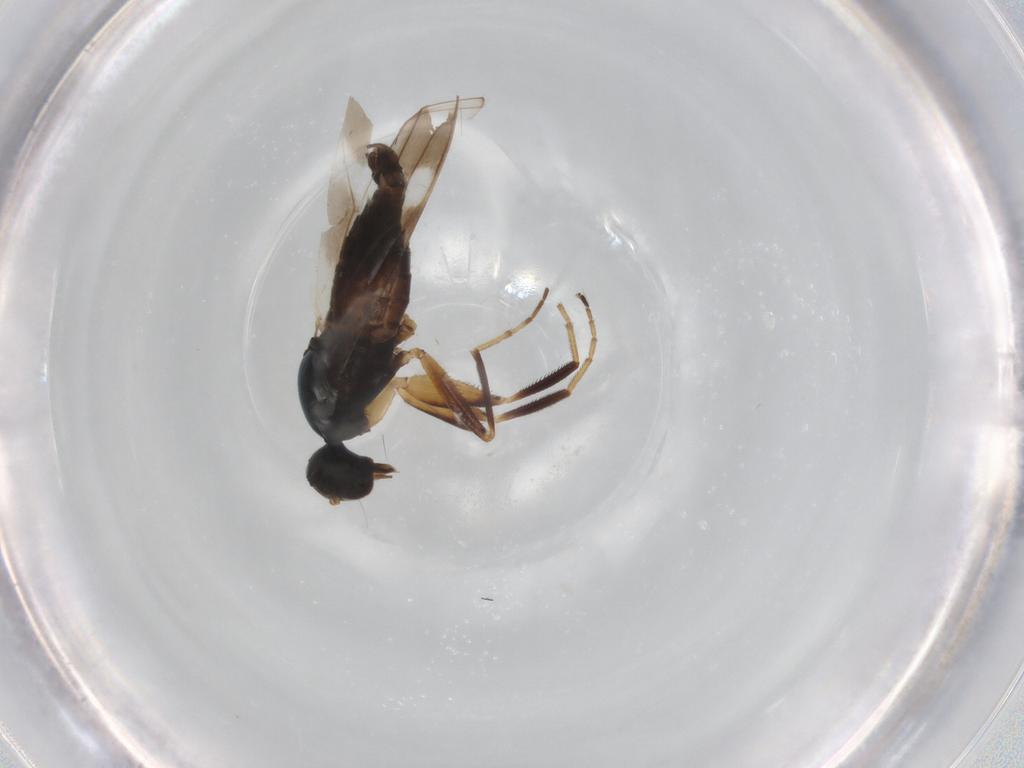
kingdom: Animalia
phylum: Arthropoda
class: Insecta
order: Diptera
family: Hybotidae
